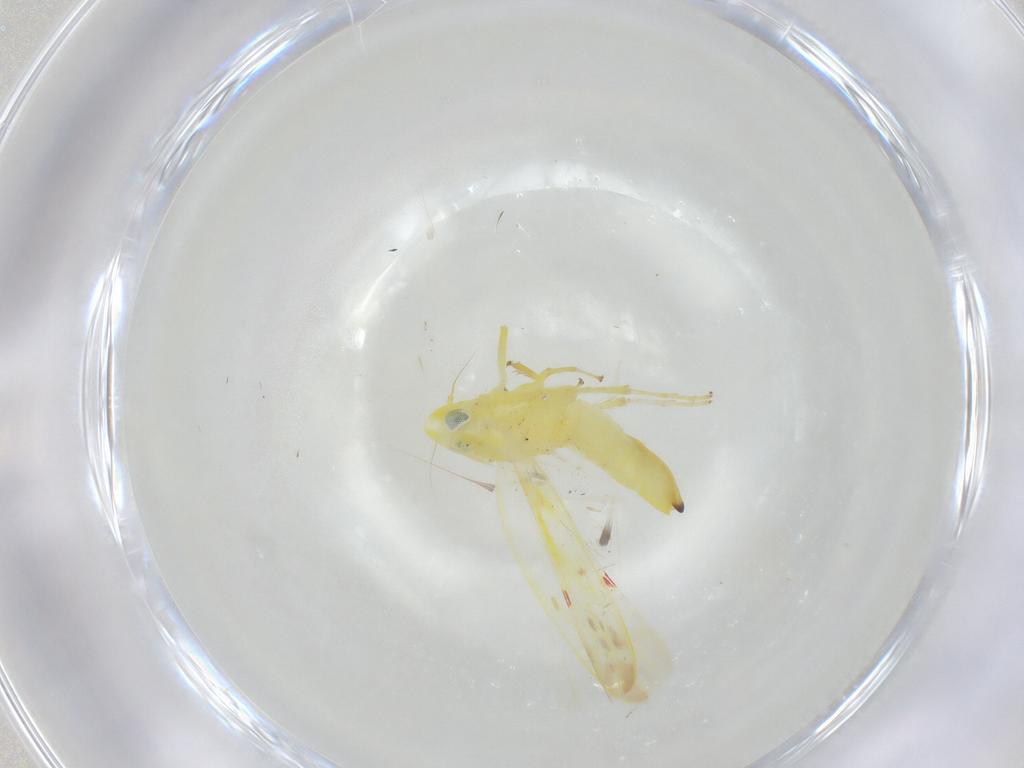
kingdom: Animalia
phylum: Arthropoda
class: Insecta
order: Hemiptera
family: Cicadellidae
